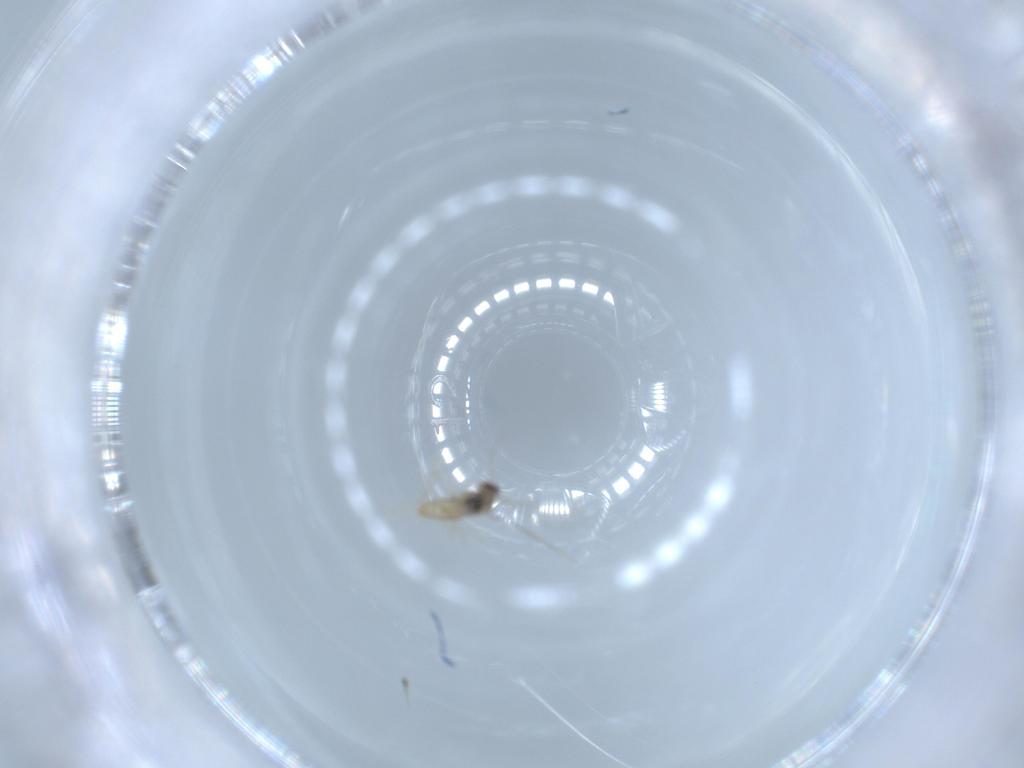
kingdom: Animalia
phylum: Arthropoda
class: Insecta
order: Diptera
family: Cecidomyiidae
